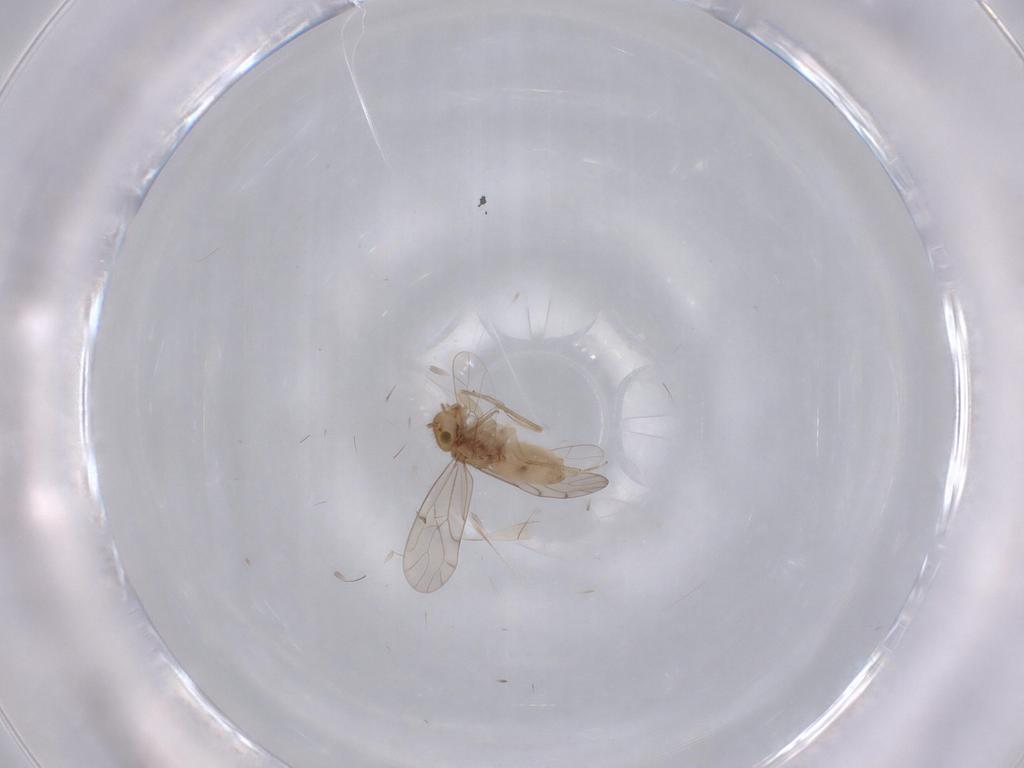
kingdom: Animalia
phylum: Arthropoda
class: Insecta
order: Psocodea
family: Ectopsocidae
